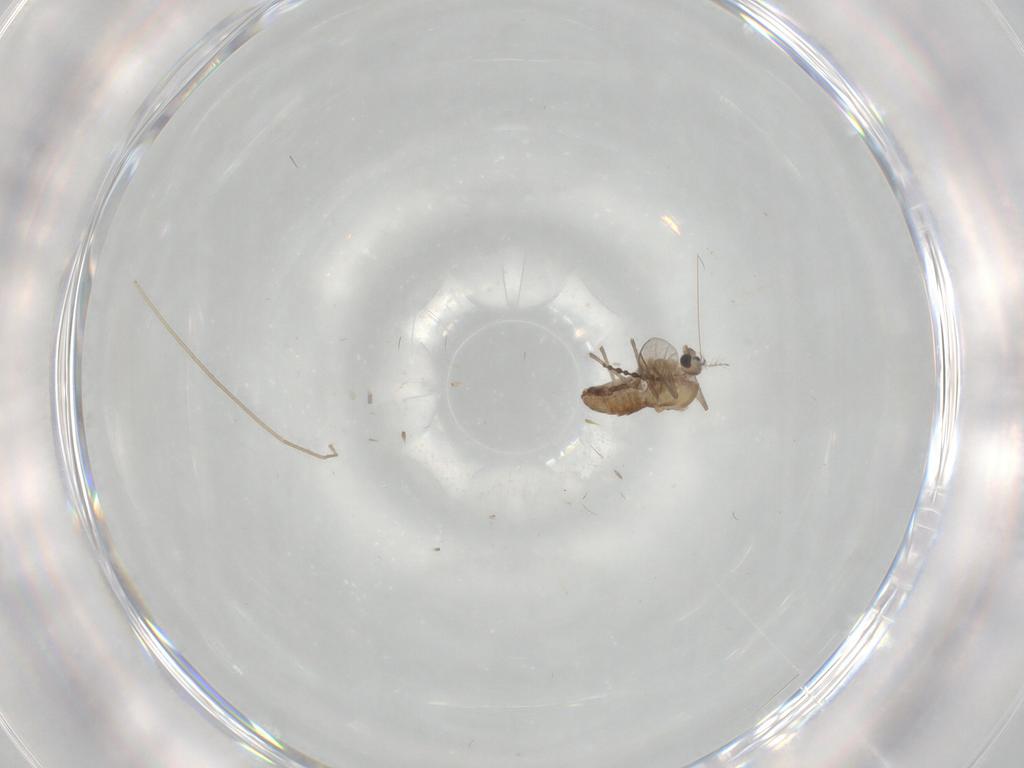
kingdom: Animalia
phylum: Arthropoda
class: Insecta
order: Diptera
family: Chironomidae
